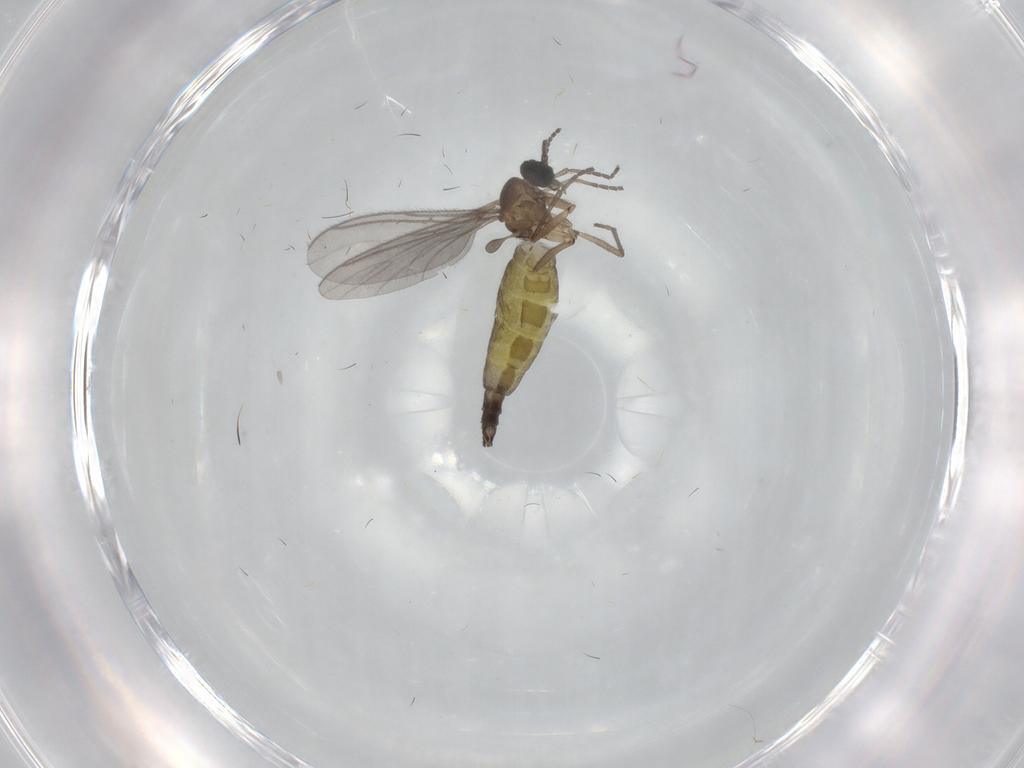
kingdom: Animalia
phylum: Arthropoda
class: Insecta
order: Diptera
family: Sciaridae
